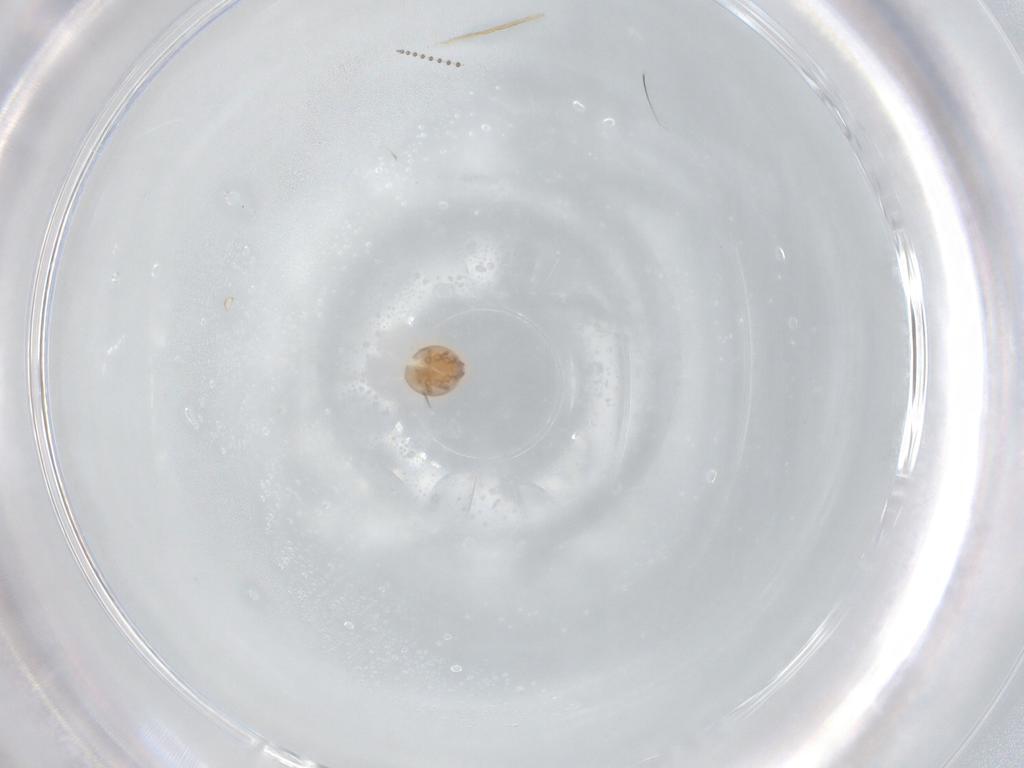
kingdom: Animalia
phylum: Arthropoda
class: Arachnida
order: Mesostigmata
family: Trematuridae
